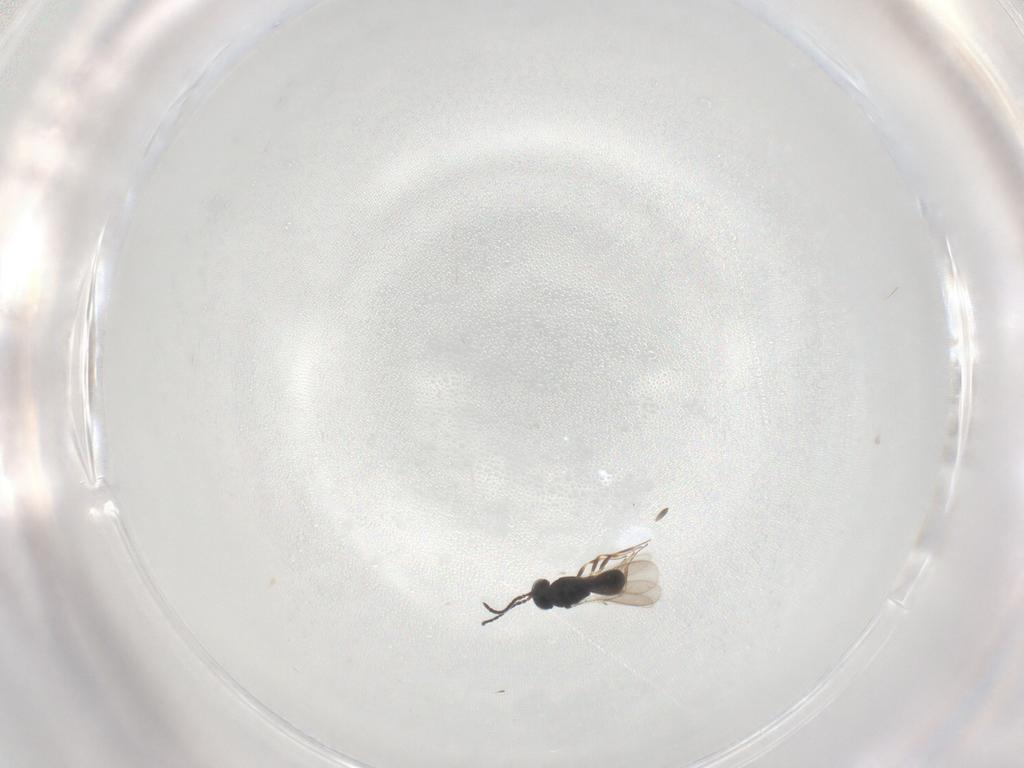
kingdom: Animalia
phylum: Arthropoda
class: Insecta
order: Hymenoptera
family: Scelionidae
